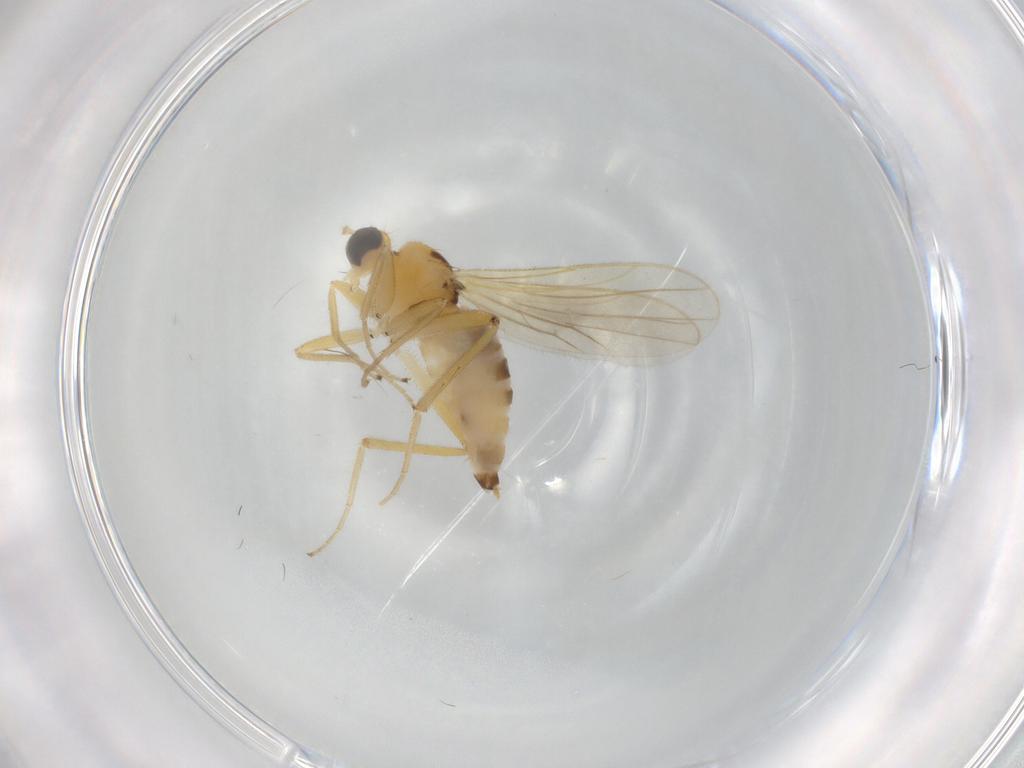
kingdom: Animalia
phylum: Arthropoda
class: Insecta
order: Diptera
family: Hybotidae
